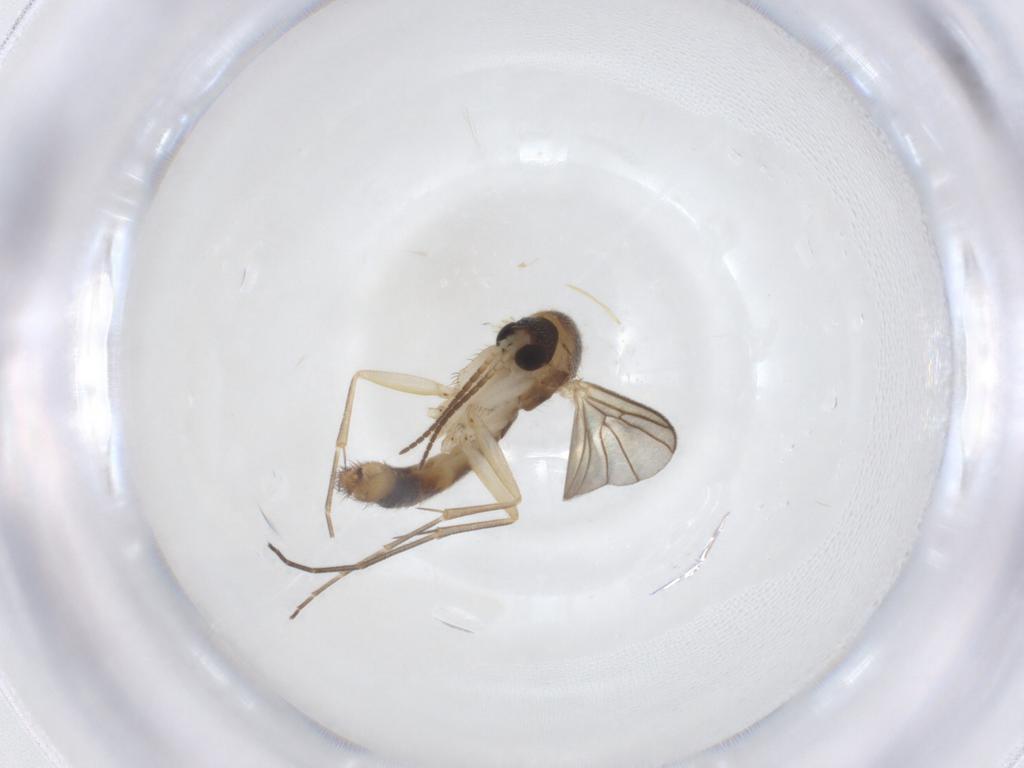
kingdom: Animalia
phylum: Arthropoda
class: Insecta
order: Diptera
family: Mycetophilidae
